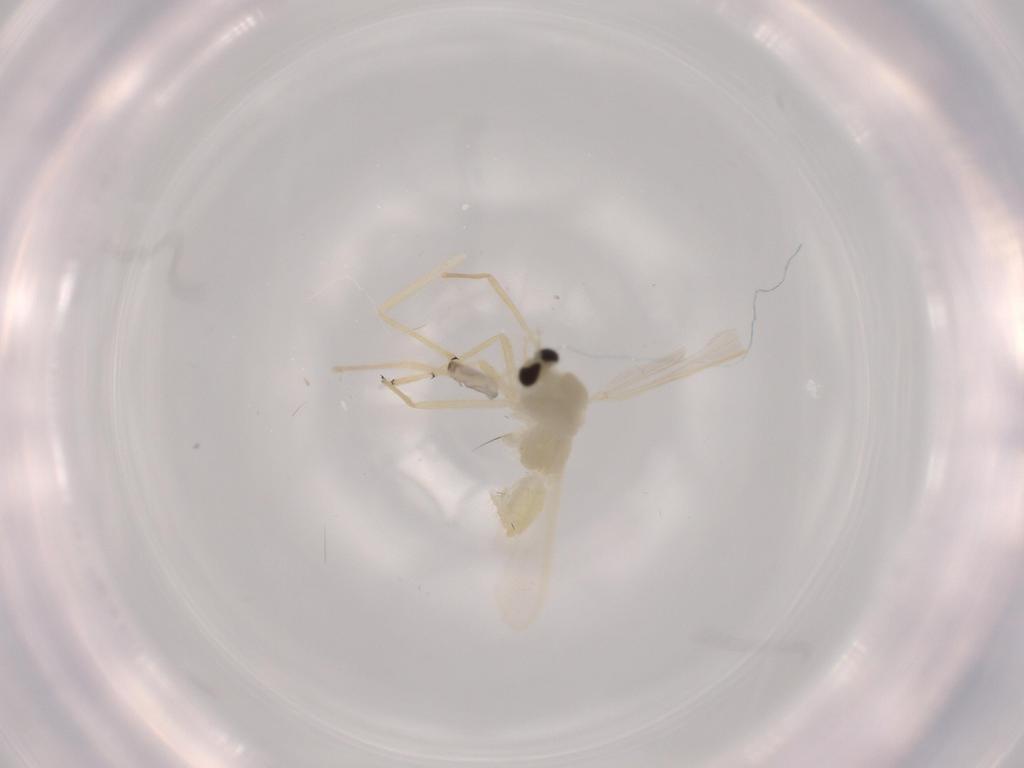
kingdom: Animalia
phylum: Arthropoda
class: Insecta
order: Diptera
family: Chironomidae
